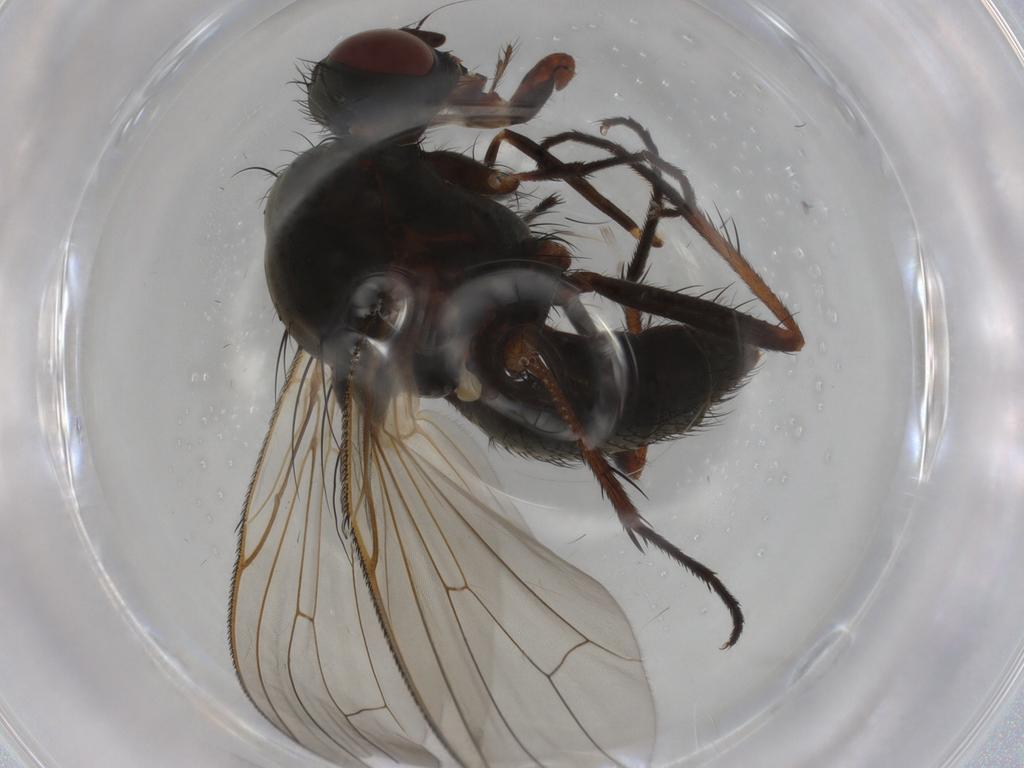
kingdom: Animalia
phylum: Arthropoda
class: Insecta
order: Diptera
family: Anthomyiidae
